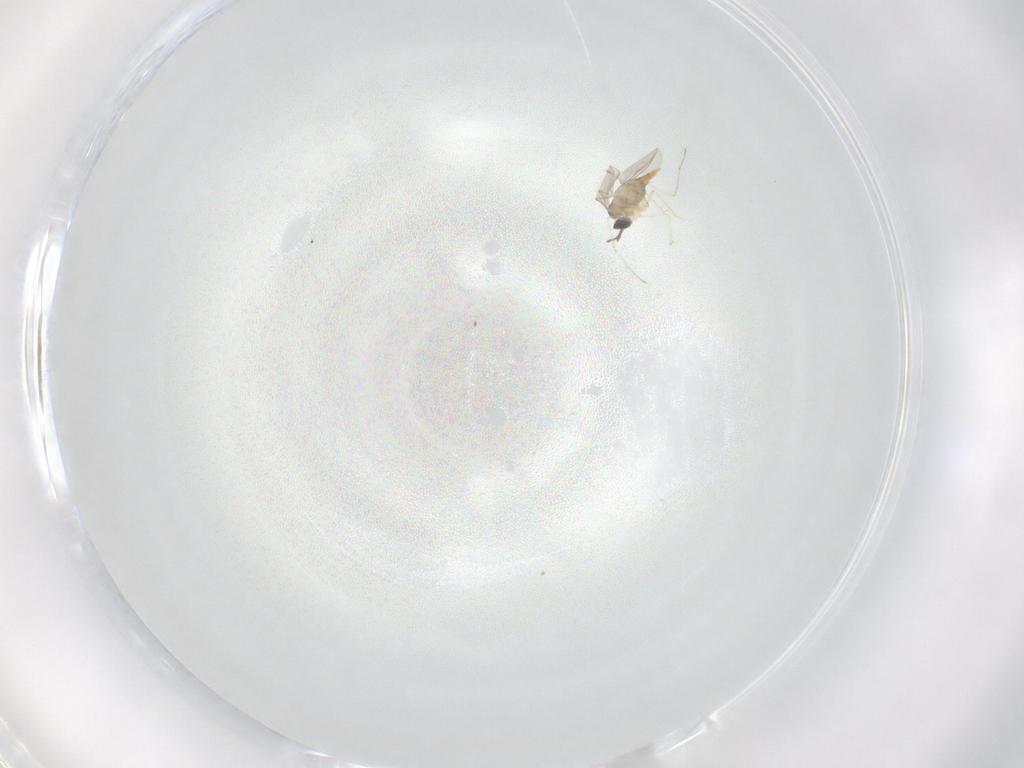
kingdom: Animalia
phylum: Arthropoda
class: Insecta
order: Diptera
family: Cecidomyiidae
